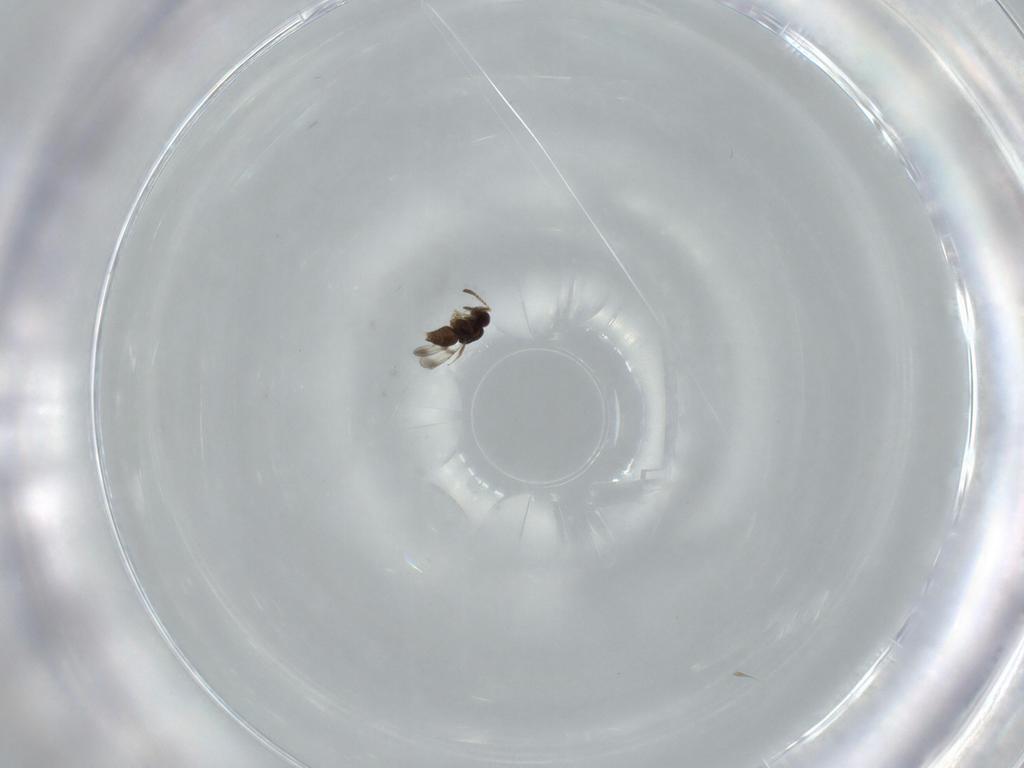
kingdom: Animalia
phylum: Arthropoda
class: Insecta
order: Hymenoptera
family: Ceraphronidae
